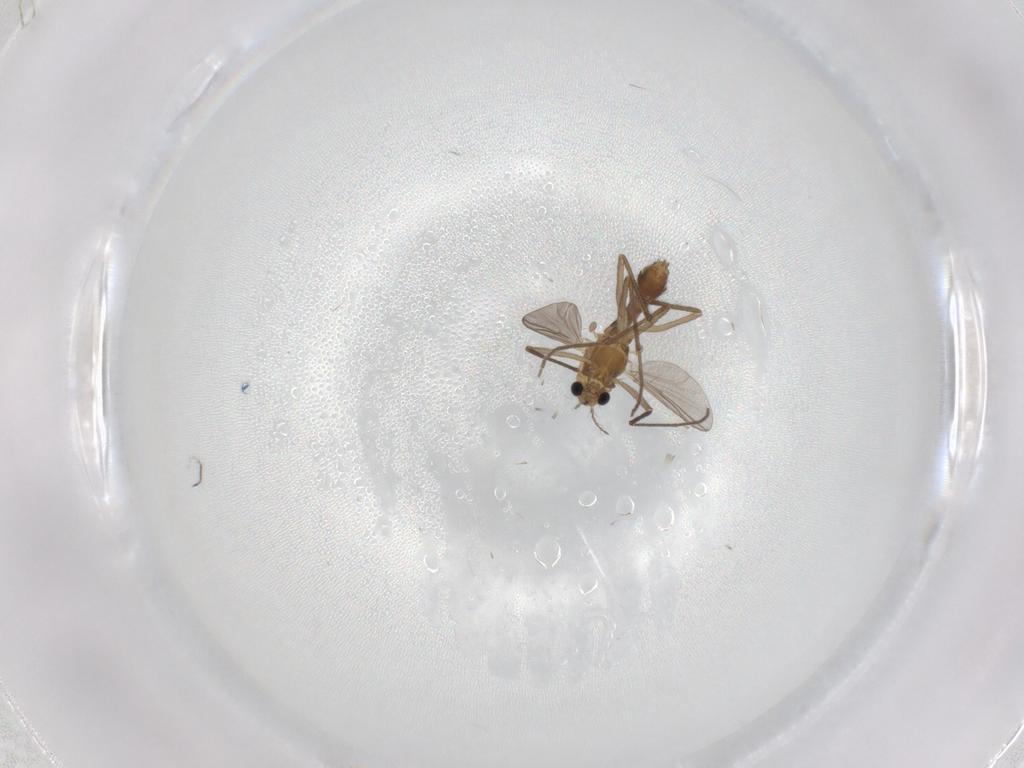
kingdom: Animalia
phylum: Arthropoda
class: Insecta
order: Diptera
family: Chironomidae
